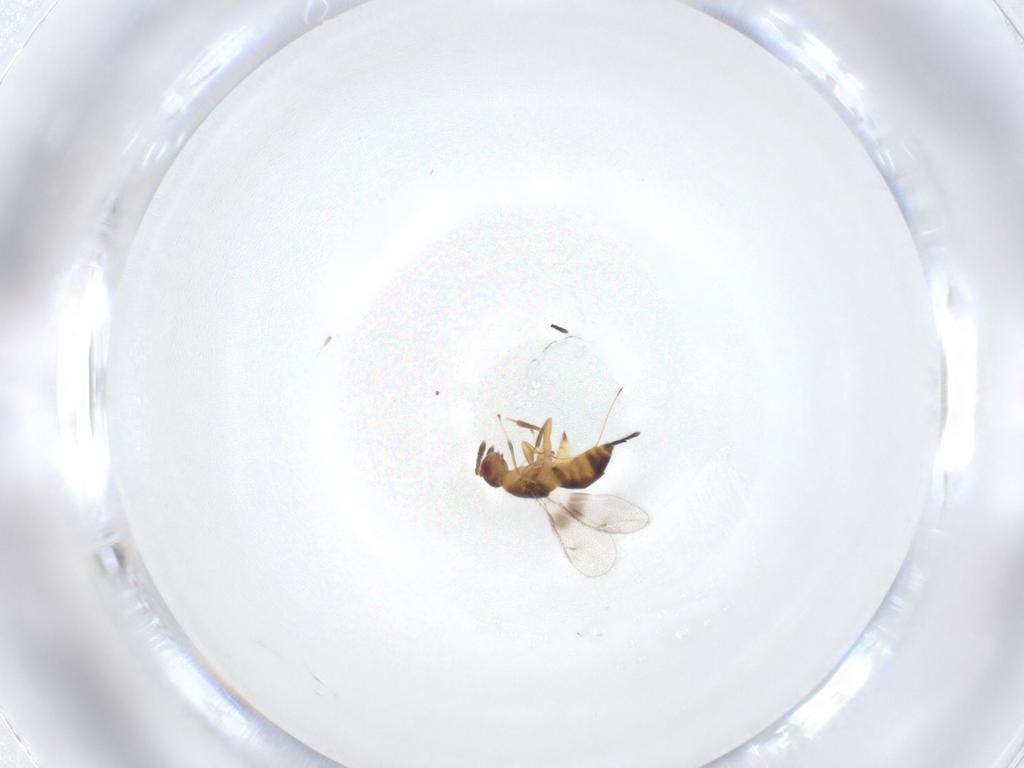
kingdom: Animalia
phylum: Arthropoda
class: Insecta
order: Hymenoptera
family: Torymidae
